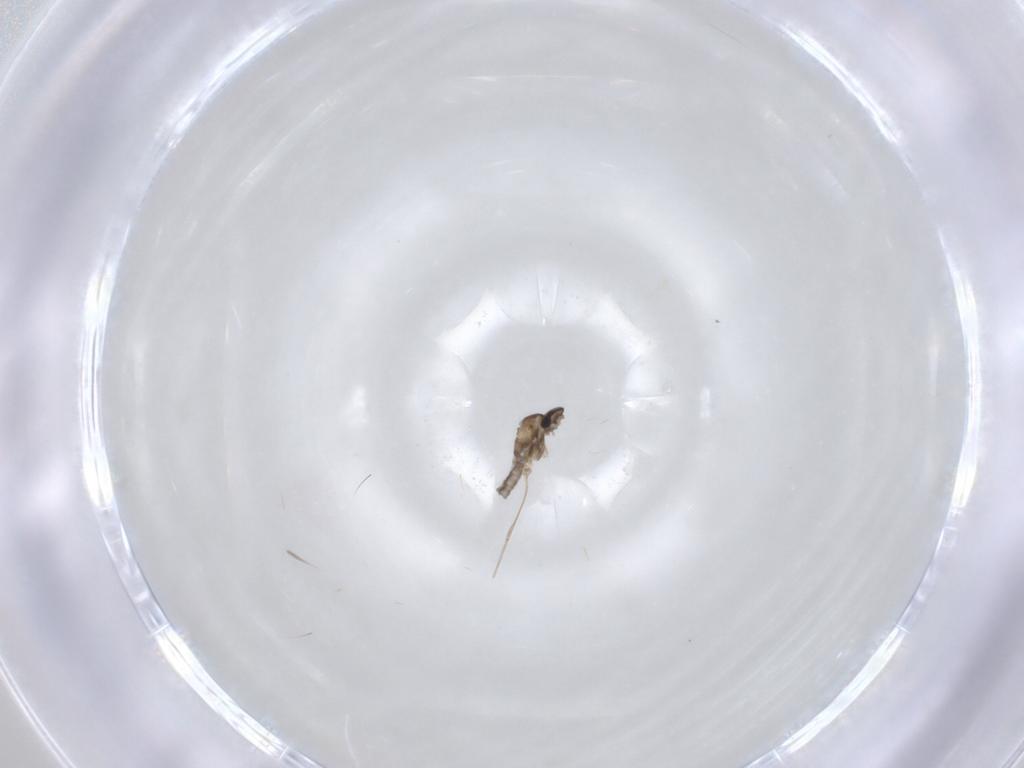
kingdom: Animalia
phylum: Arthropoda
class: Insecta
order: Diptera
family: Cecidomyiidae
